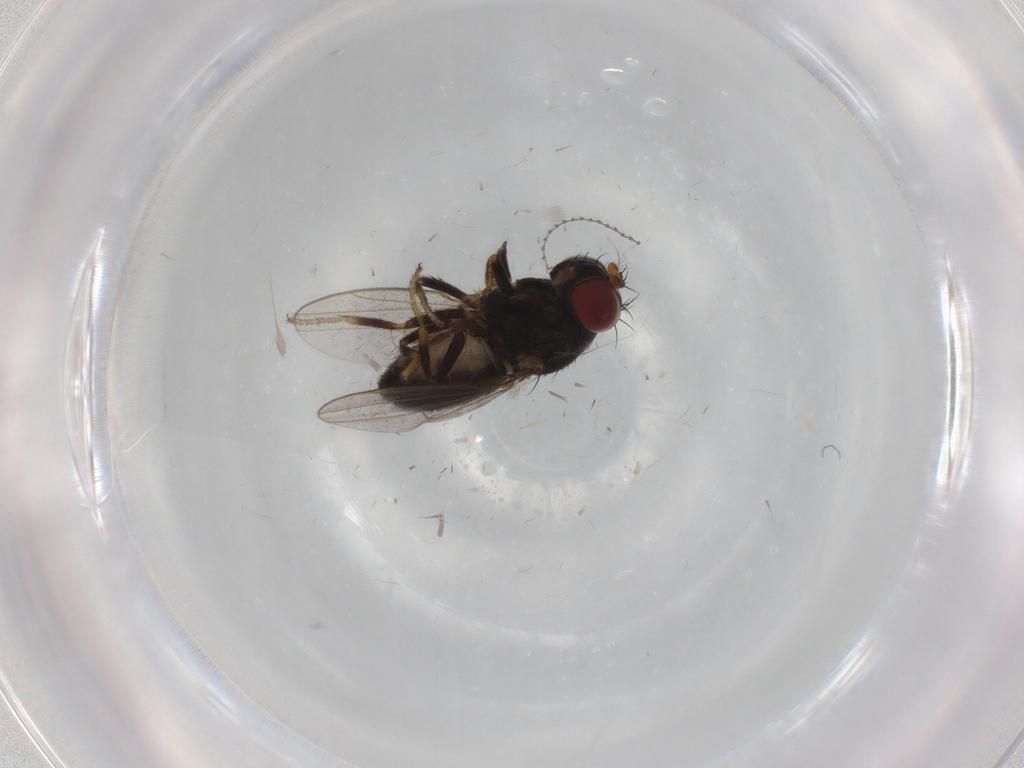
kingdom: Animalia
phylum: Arthropoda
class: Insecta
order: Diptera
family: Cecidomyiidae
